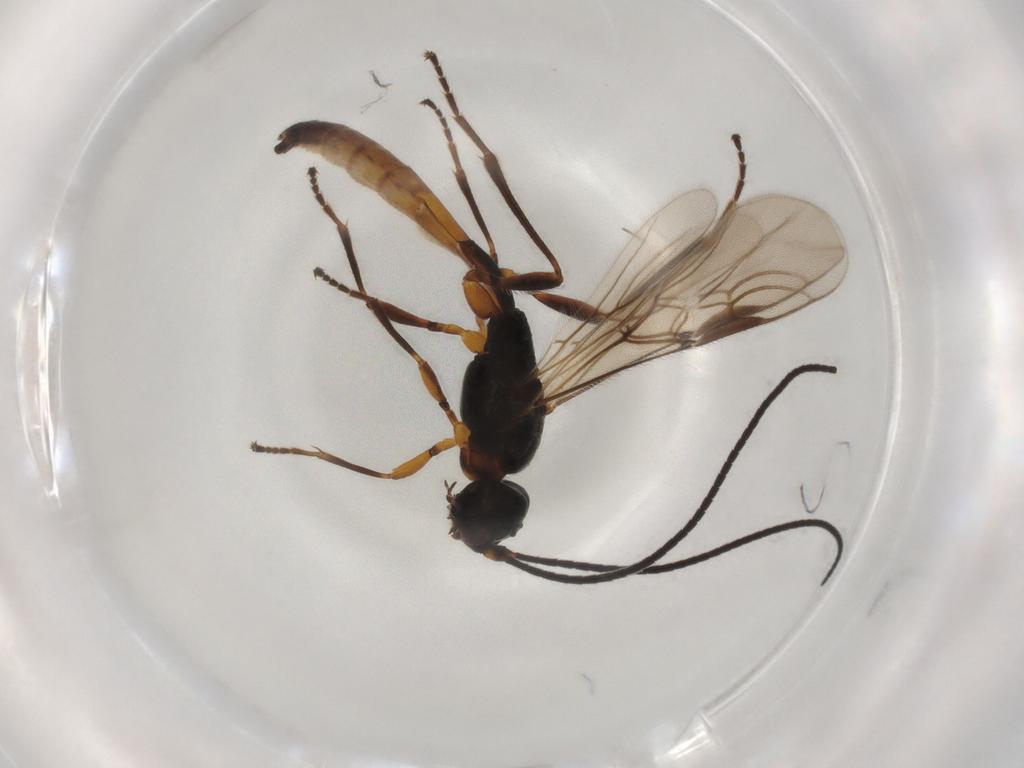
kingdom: Animalia
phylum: Arthropoda
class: Insecta
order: Hymenoptera
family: Braconidae
